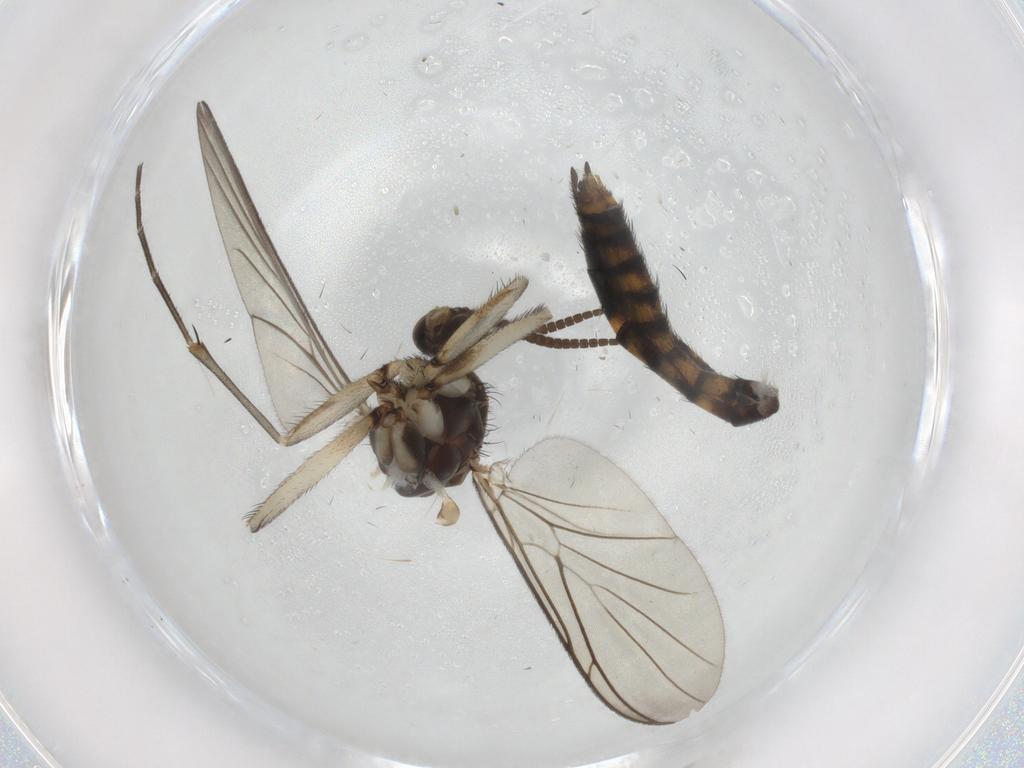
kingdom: Animalia
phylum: Arthropoda
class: Insecta
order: Diptera
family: Keroplatidae
